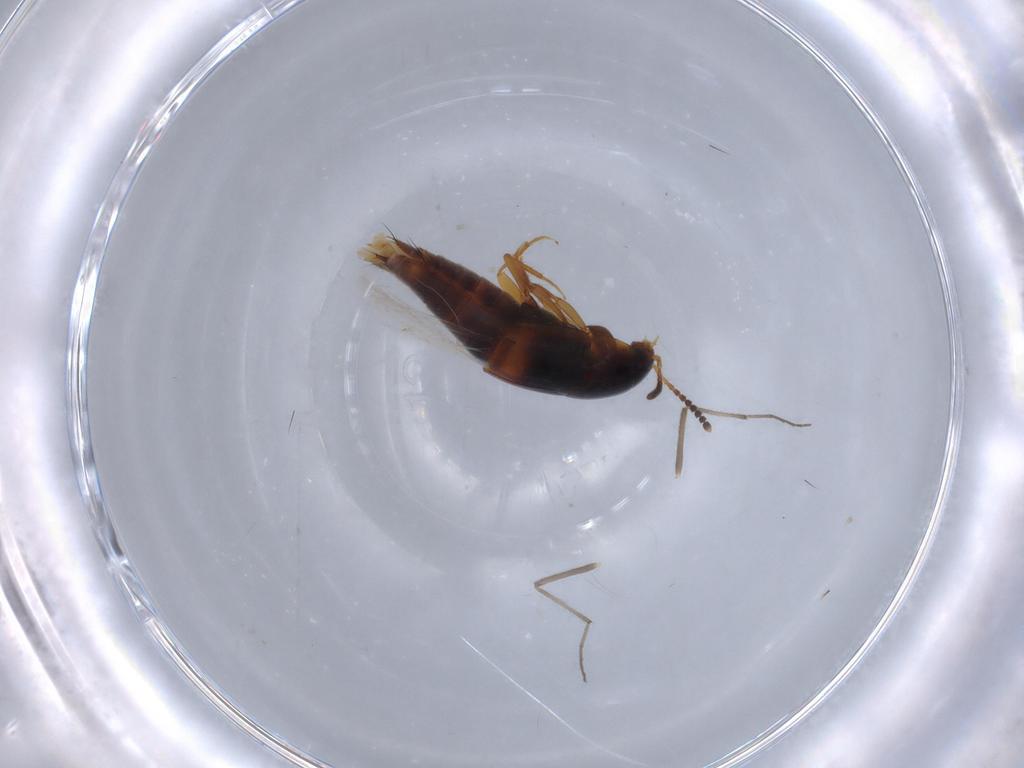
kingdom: Animalia
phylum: Arthropoda
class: Insecta
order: Coleoptera
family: Staphylinidae
